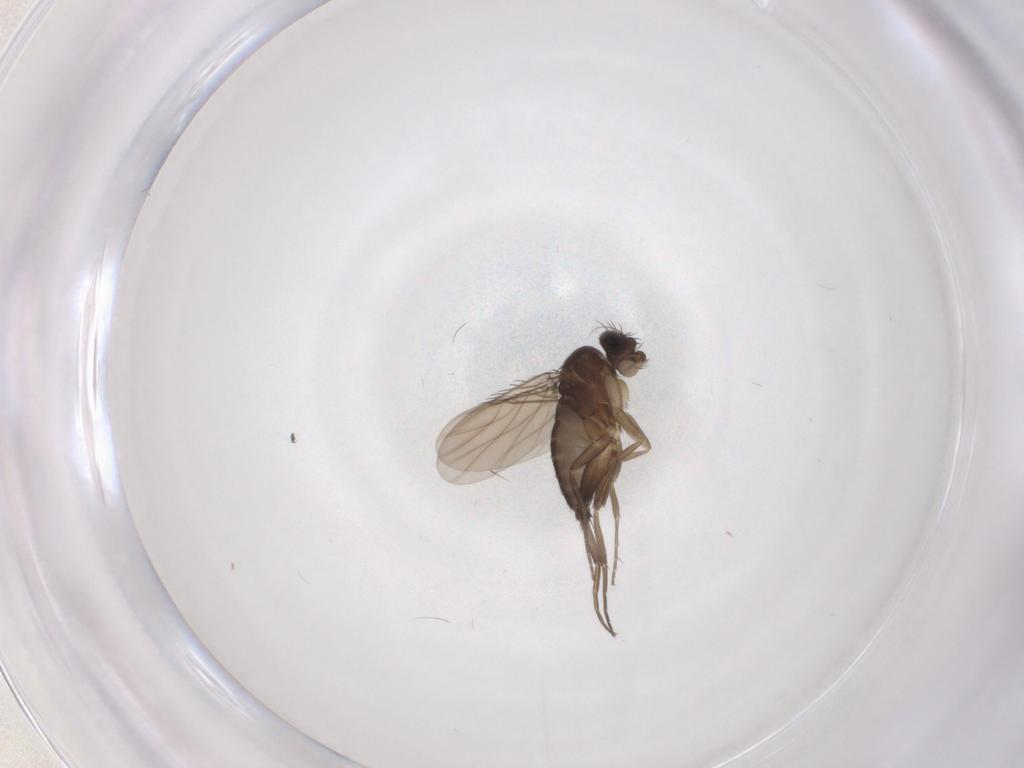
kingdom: Animalia
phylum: Arthropoda
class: Insecta
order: Diptera
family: Phoridae
